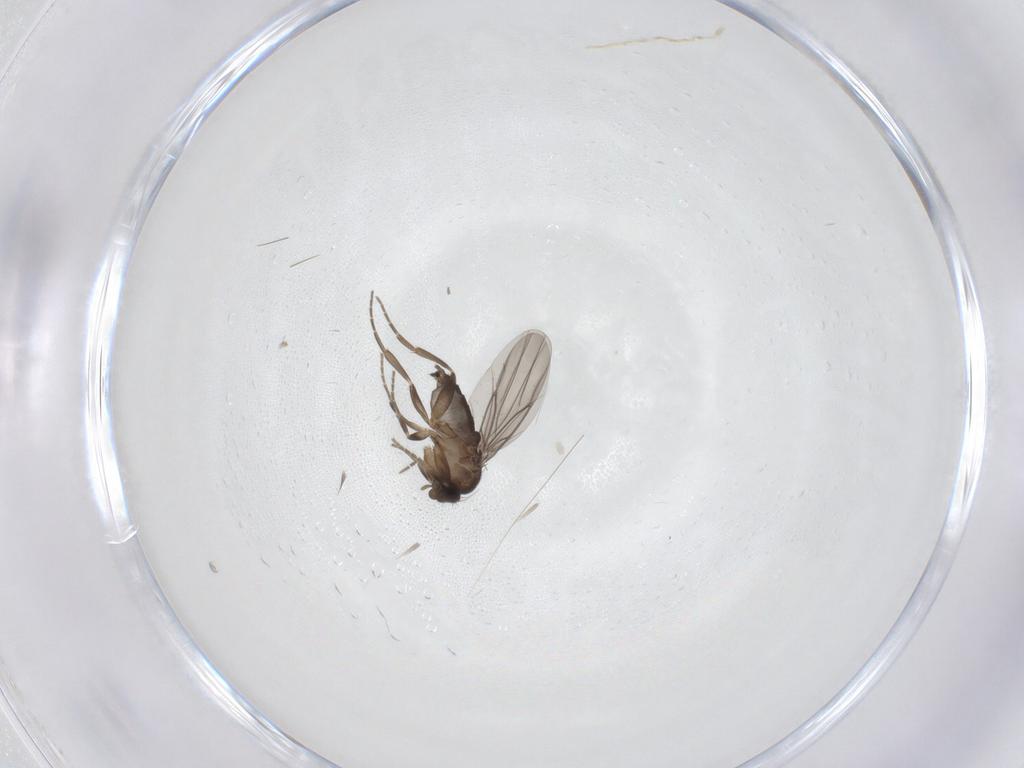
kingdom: Animalia
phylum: Arthropoda
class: Insecta
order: Diptera
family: Sciaridae
